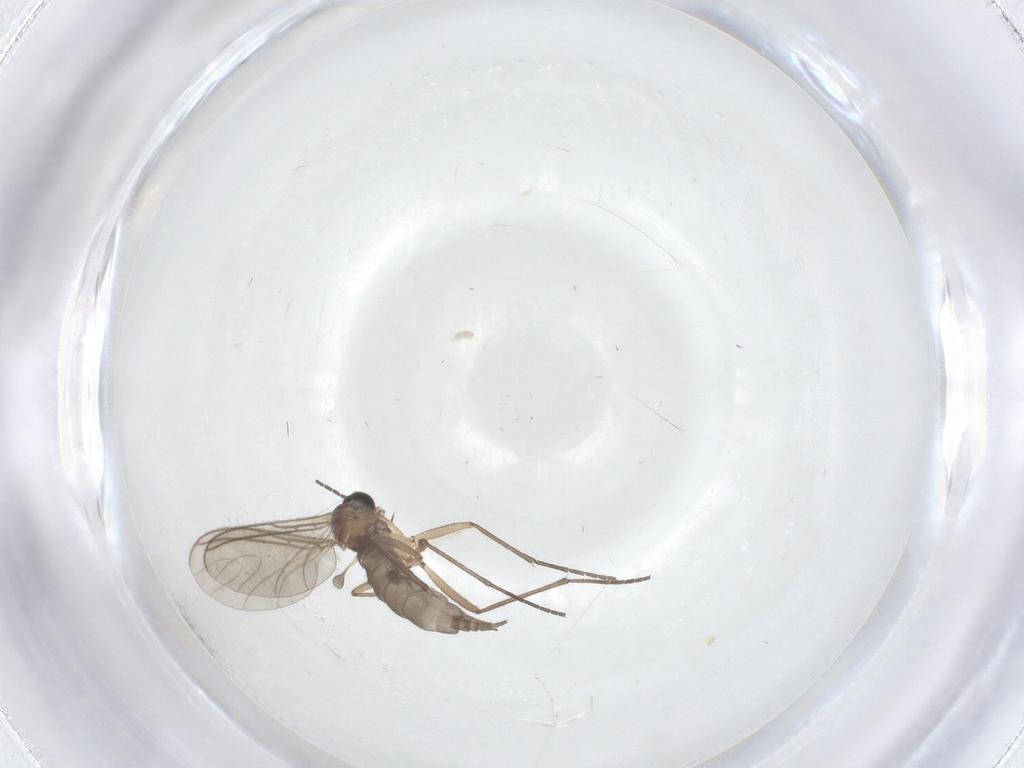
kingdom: Animalia
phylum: Arthropoda
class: Insecta
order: Diptera
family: Sciaridae
